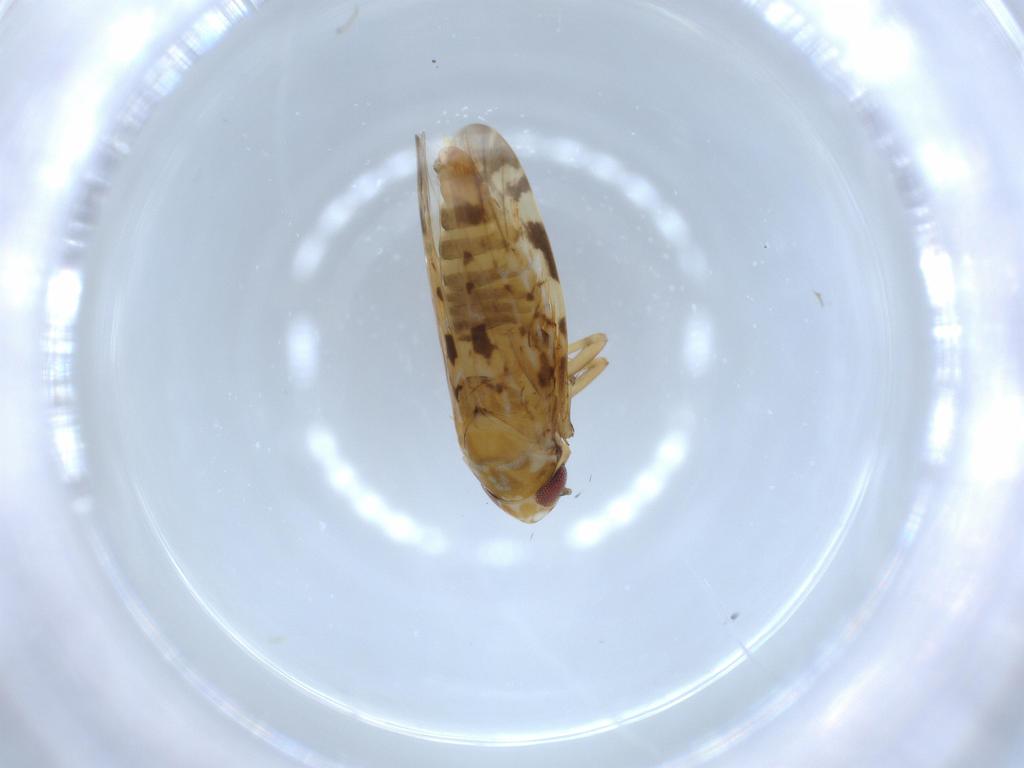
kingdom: Animalia
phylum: Arthropoda
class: Insecta
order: Hemiptera
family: Cicadellidae
